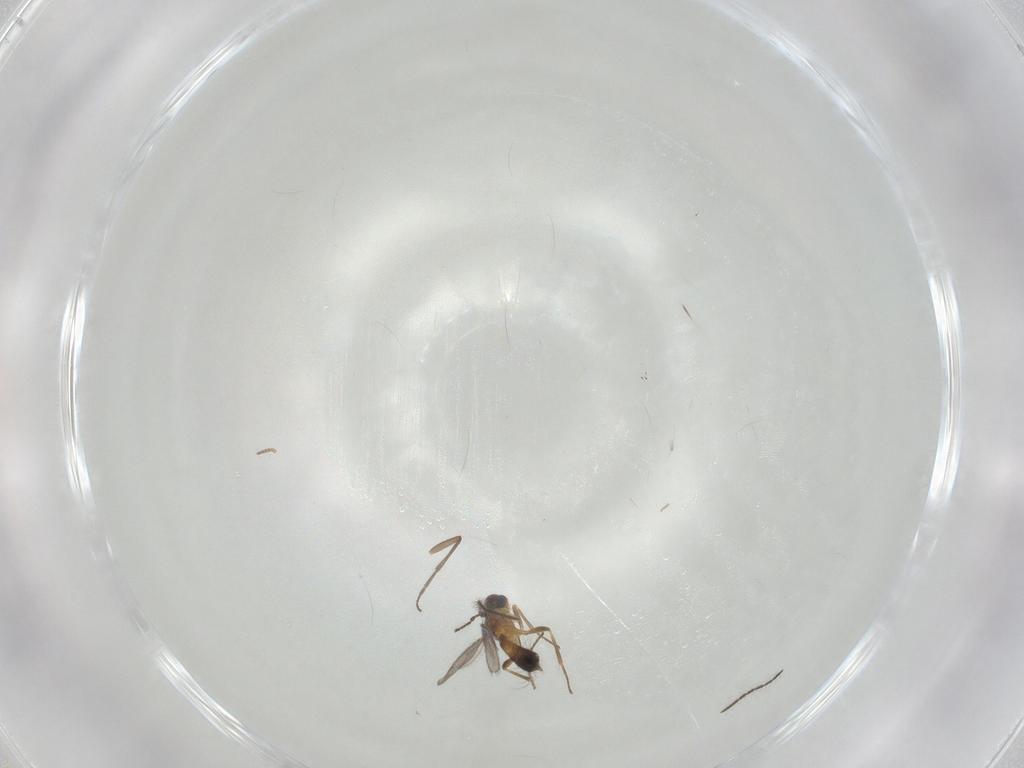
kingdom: Animalia
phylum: Arthropoda
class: Insecta
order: Hymenoptera
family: Eupelmidae
